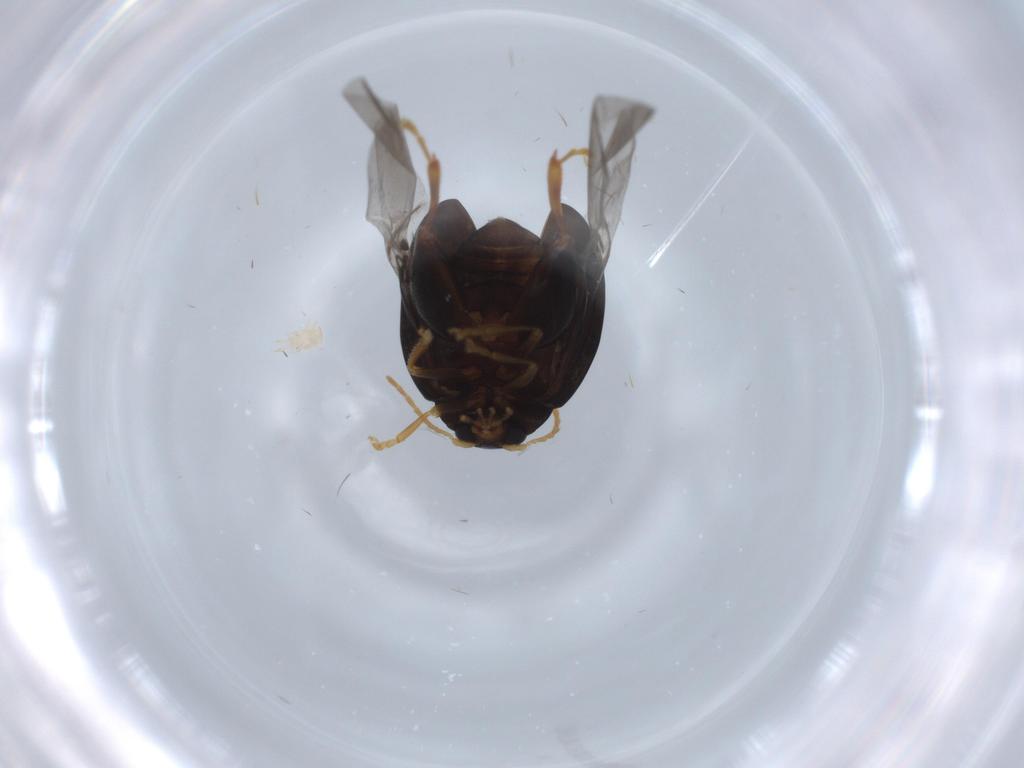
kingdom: Animalia
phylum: Arthropoda
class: Insecta
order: Coleoptera
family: Chrysomelidae
